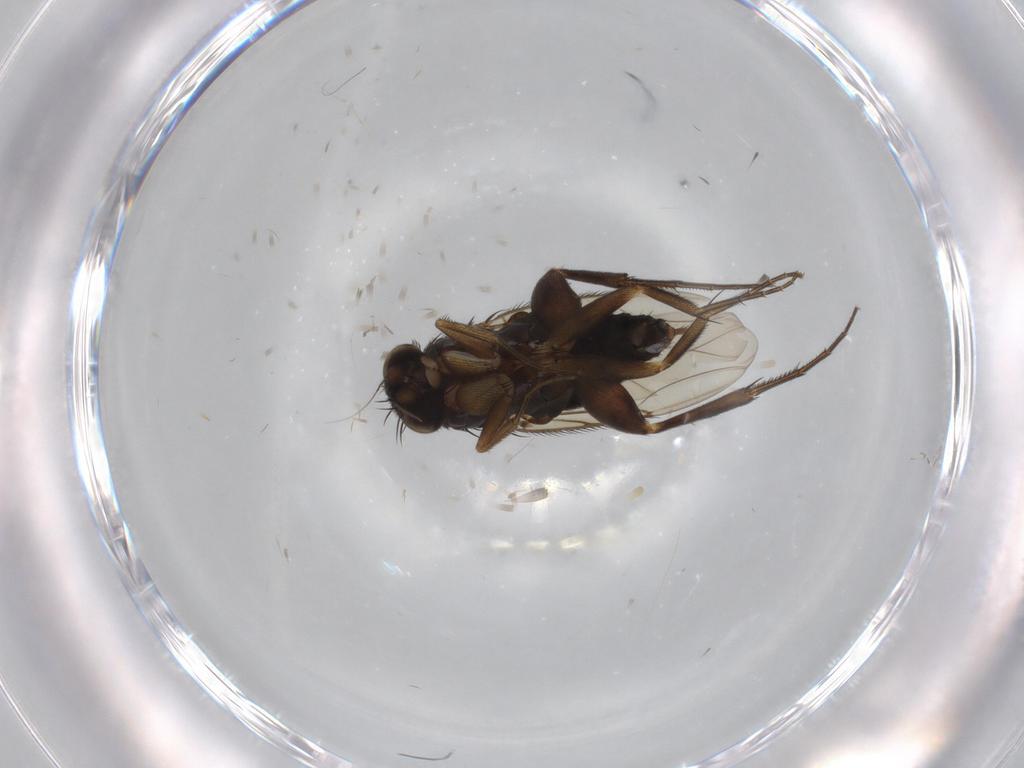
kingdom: Animalia
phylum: Arthropoda
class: Insecta
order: Diptera
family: Phoridae
